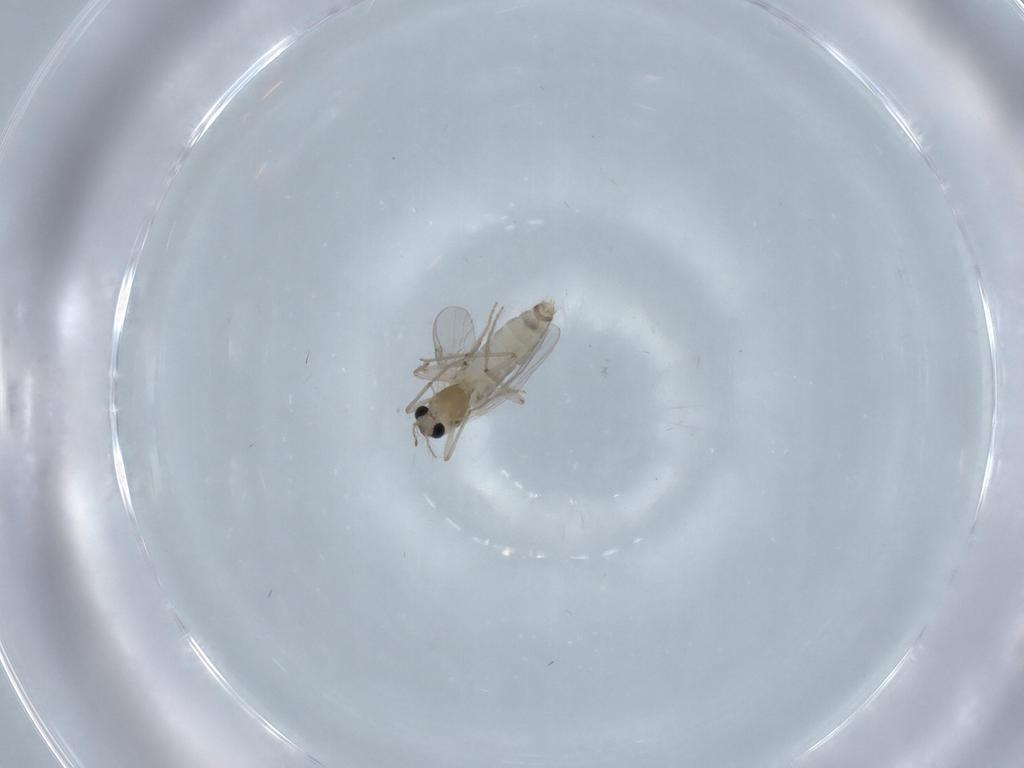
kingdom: Animalia
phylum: Arthropoda
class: Insecta
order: Diptera
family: Chironomidae
